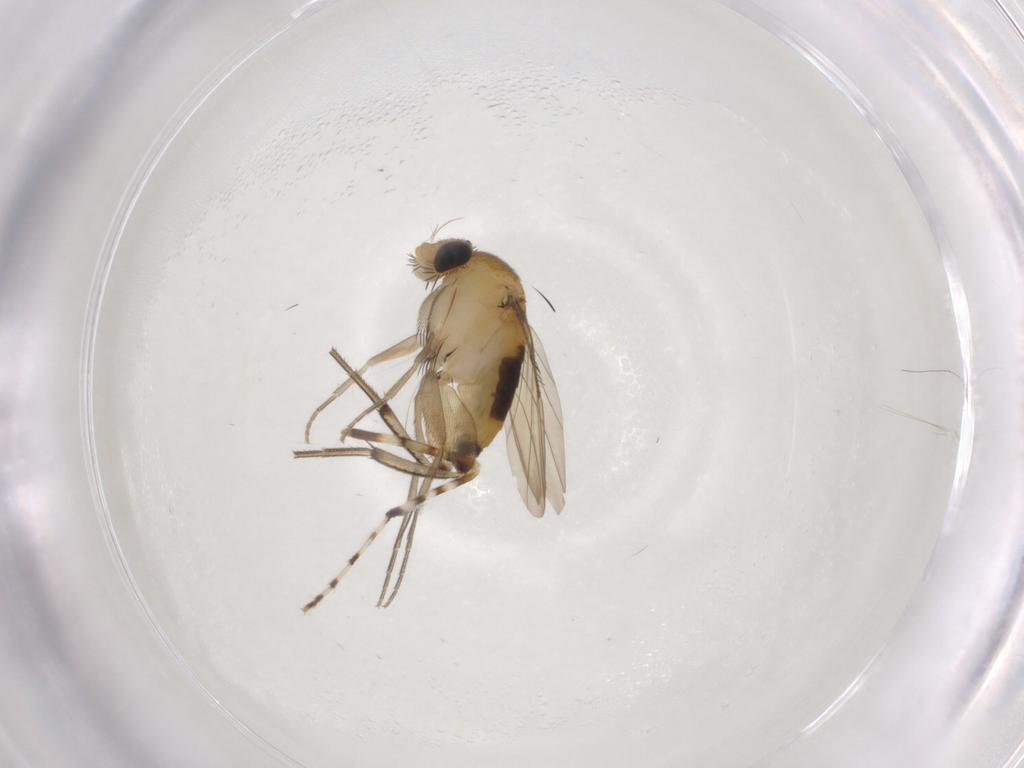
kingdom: Animalia
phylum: Arthropoda
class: Insecta
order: Diptera
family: Phoridae
